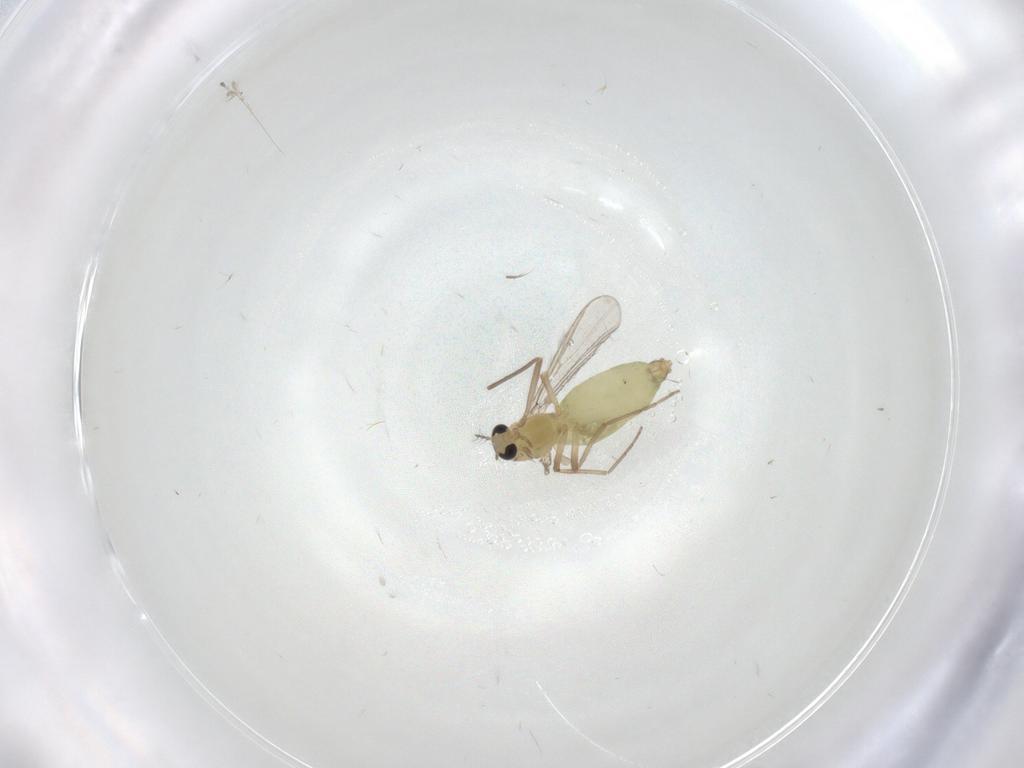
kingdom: Animalia
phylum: Arthropoda
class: Insecta
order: Diptera
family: Chironomidae
